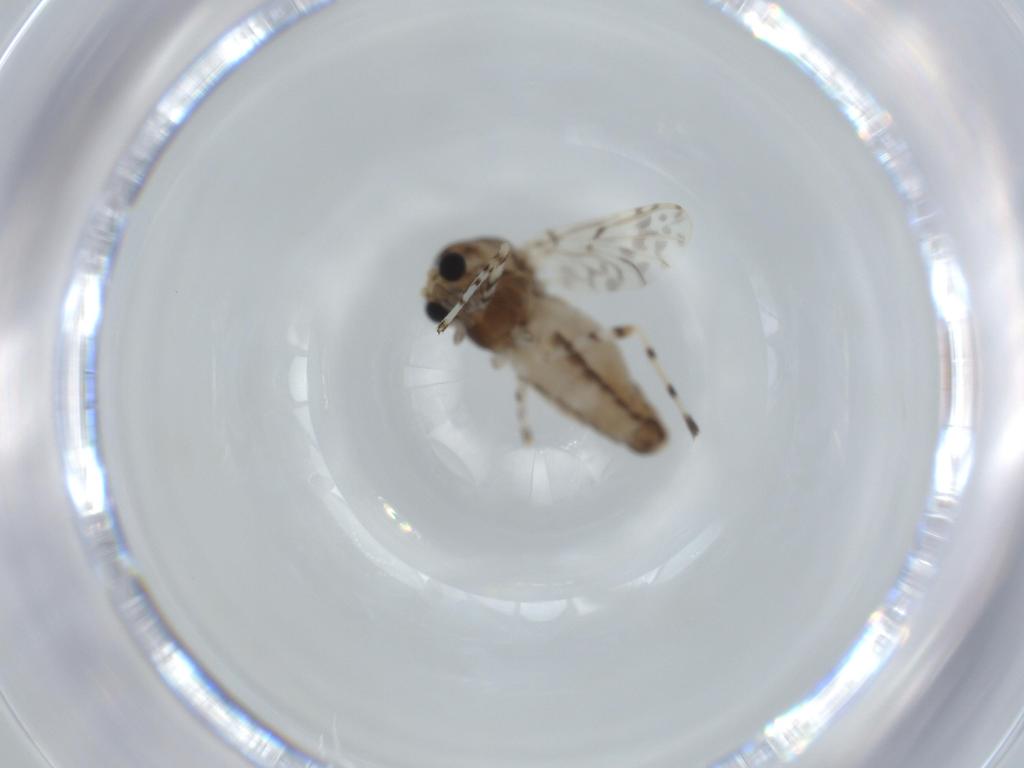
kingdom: Animalia
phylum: Arthropoda
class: Insecta
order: Diptera
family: Chironomidae
